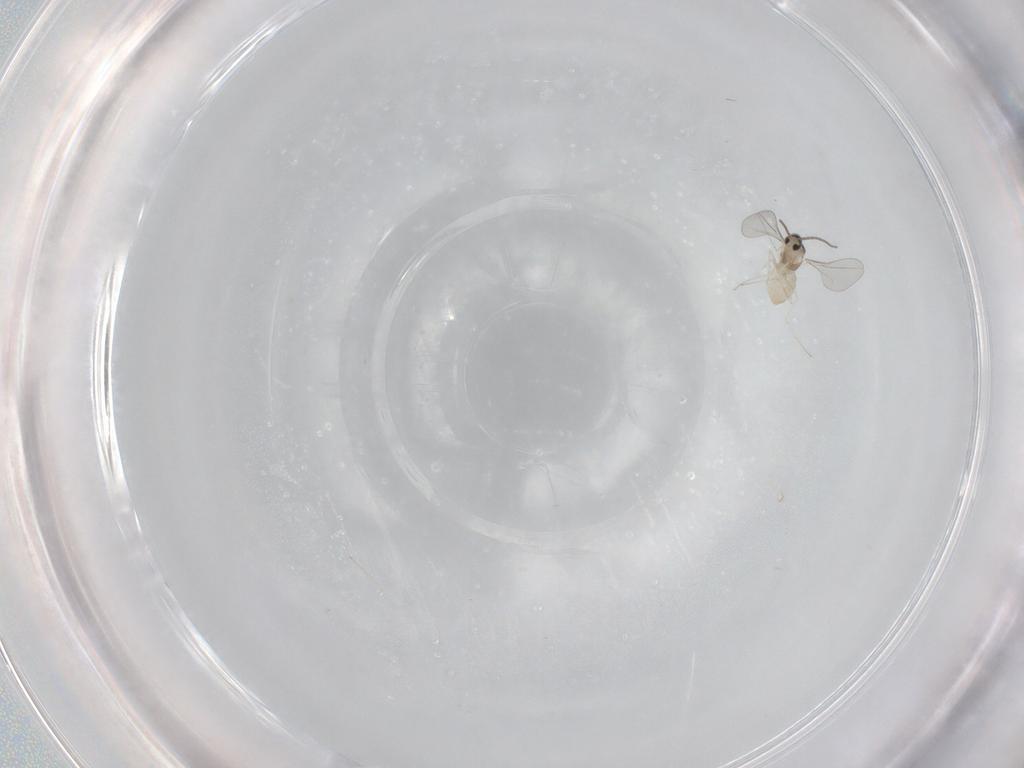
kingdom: Animalia
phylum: Arthropoda
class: Insecta
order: Diptera
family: Cecidomyiidae
